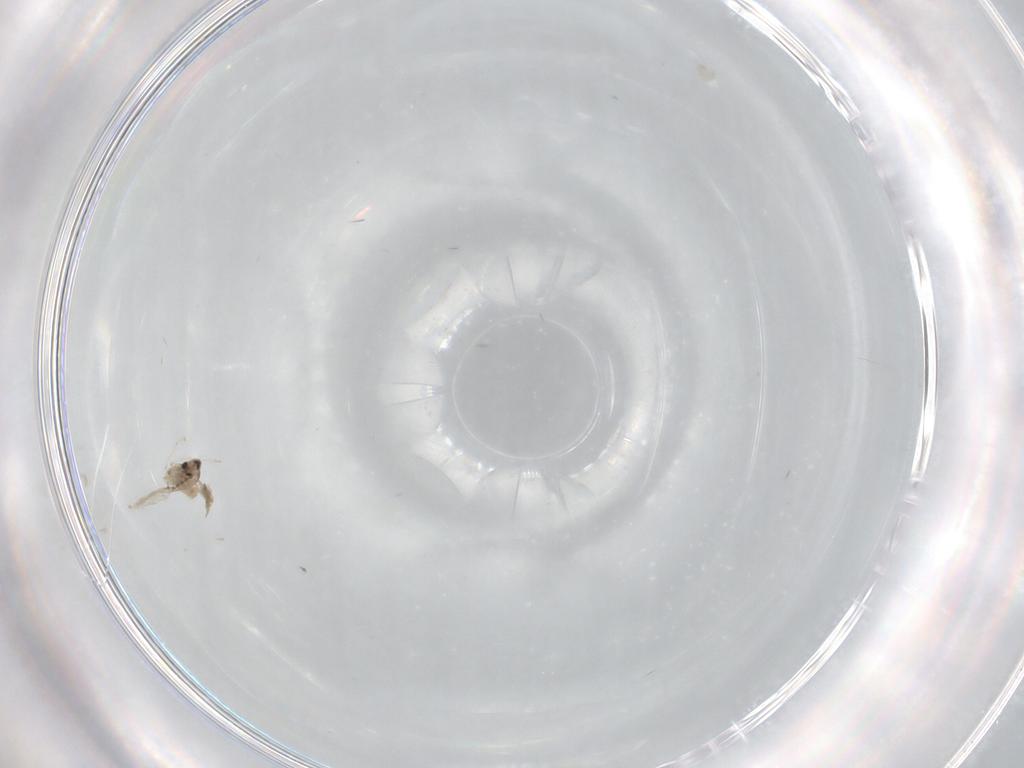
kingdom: Animalia
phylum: Arthropoda
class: Insecta
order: Diptera
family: Cecidomyiidae
